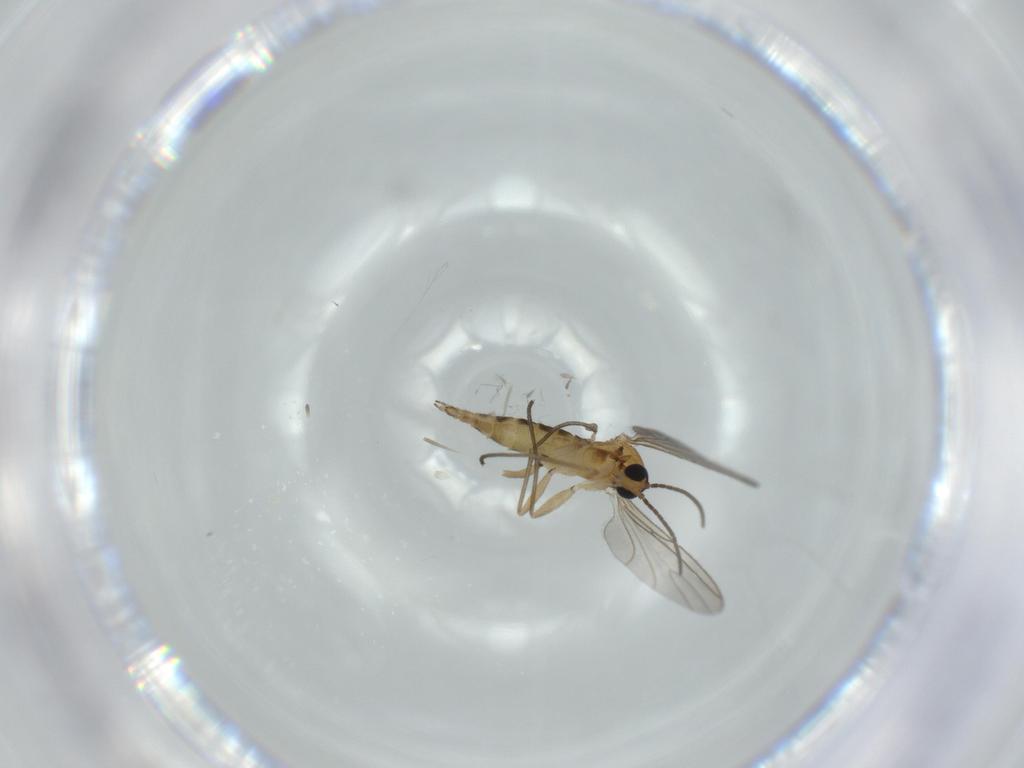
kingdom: Animalia
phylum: Arthropoda
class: Insecta
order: Diptera
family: Sciaridae
